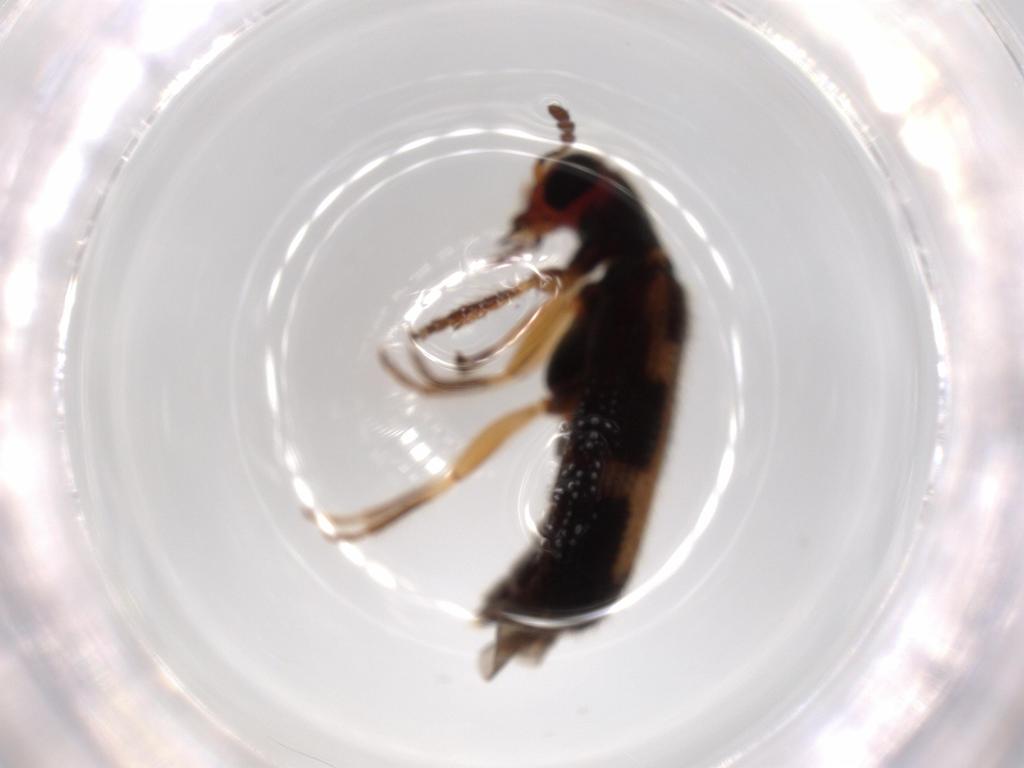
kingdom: Animalia
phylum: Arthropoda
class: Insecta
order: Coleoptera
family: Cleridae
